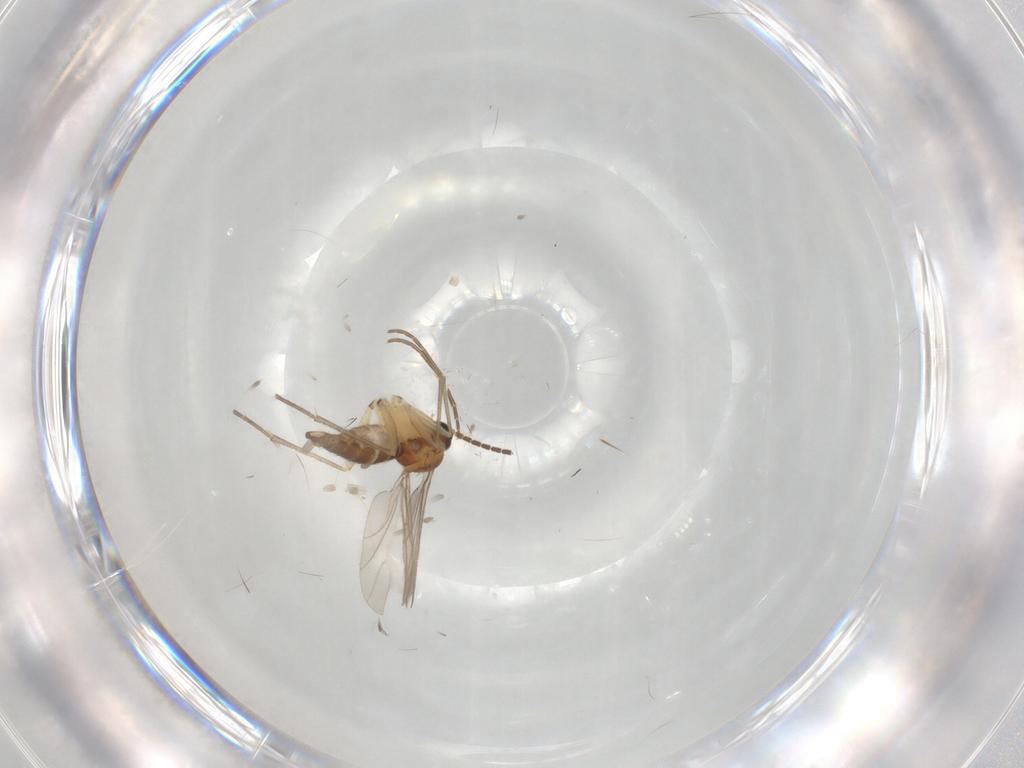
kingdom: Animalia
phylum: Arthropoda
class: Insecta
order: Diptera
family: Phoridae
